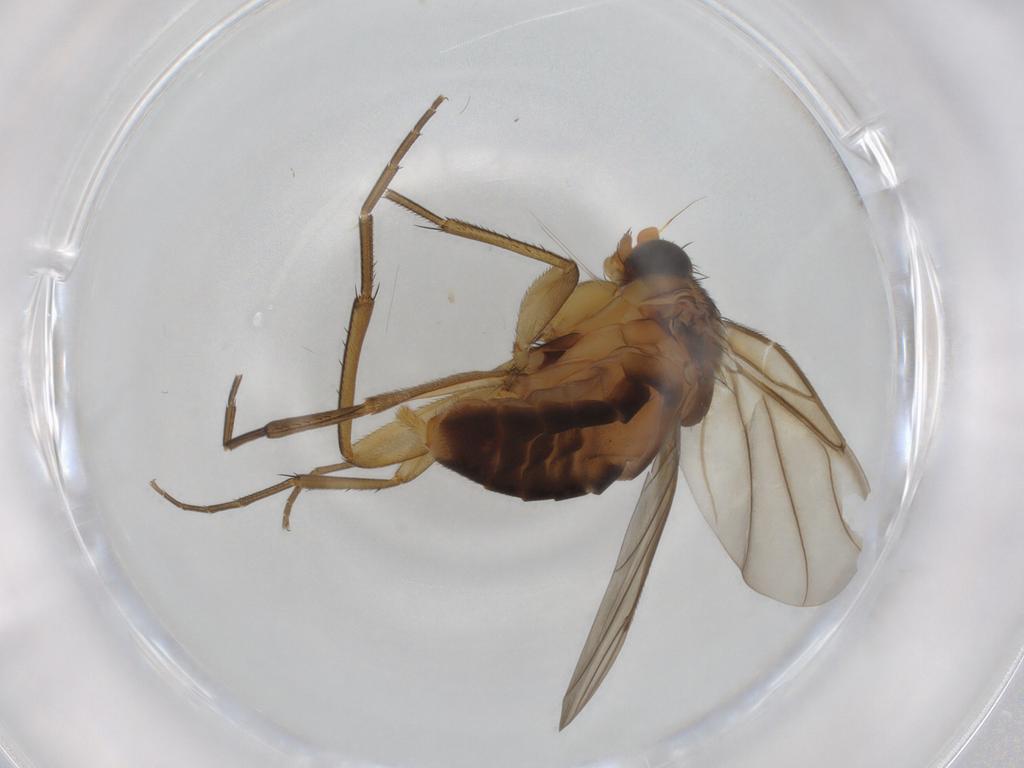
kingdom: Animalia
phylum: Arthropoda
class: Insecta
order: Diptera
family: Phoridae
